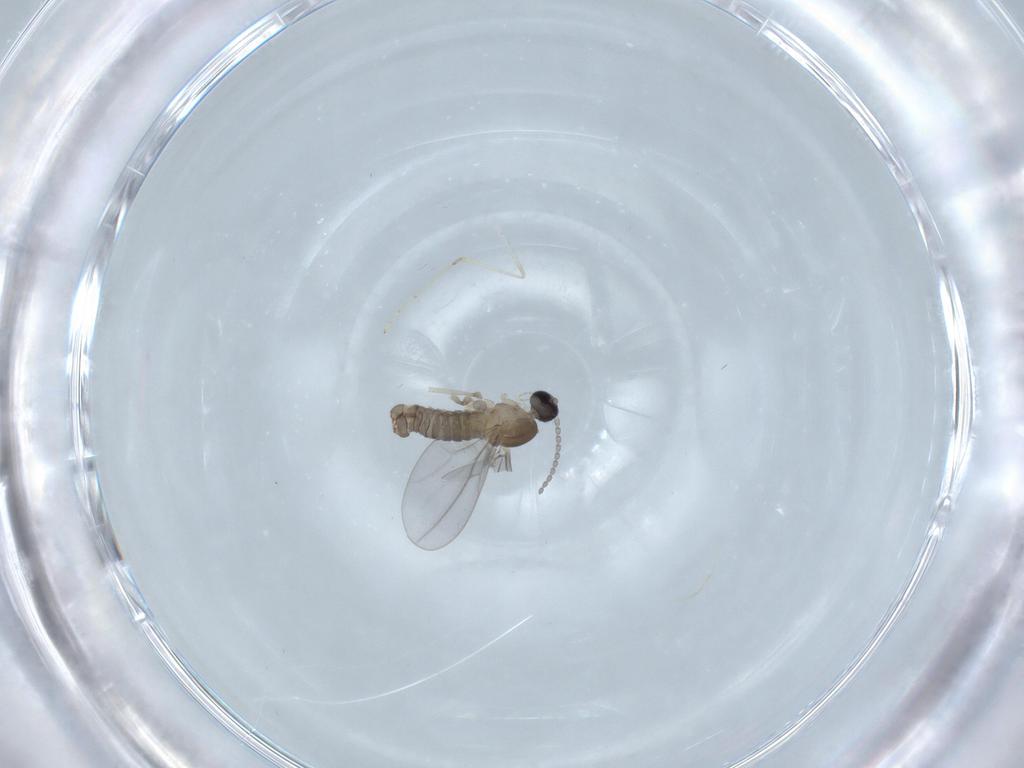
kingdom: Animalia
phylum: Arthropoda
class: Insecta
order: Diptera
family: Cecidomyiidae
